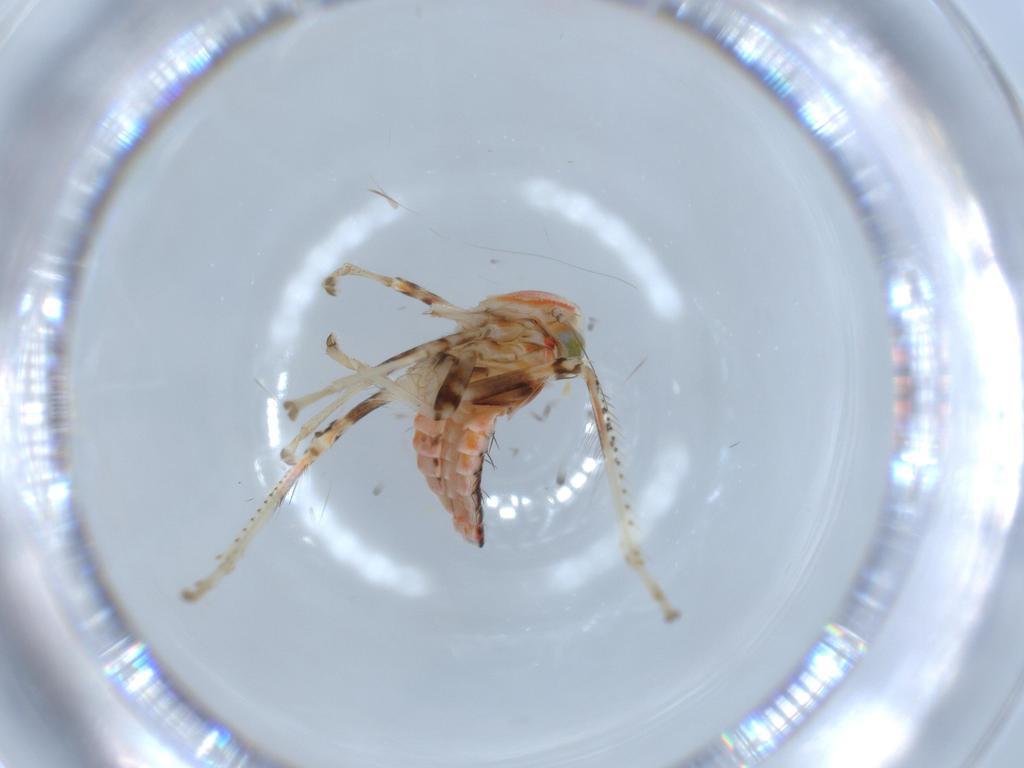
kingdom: Animalia
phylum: Arthropoda
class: Insecta
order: Hemiptera
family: Cicadellidae
